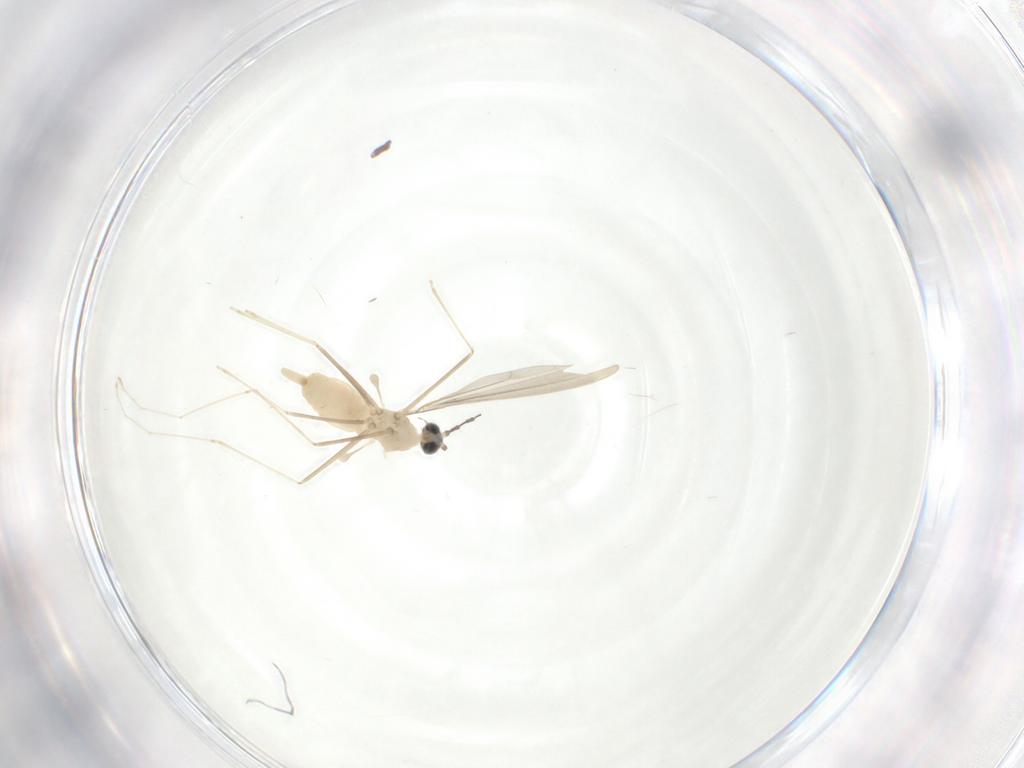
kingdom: Animalia
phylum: Arthropoda
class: Insecta
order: Diptera
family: Cecidomyiidae
